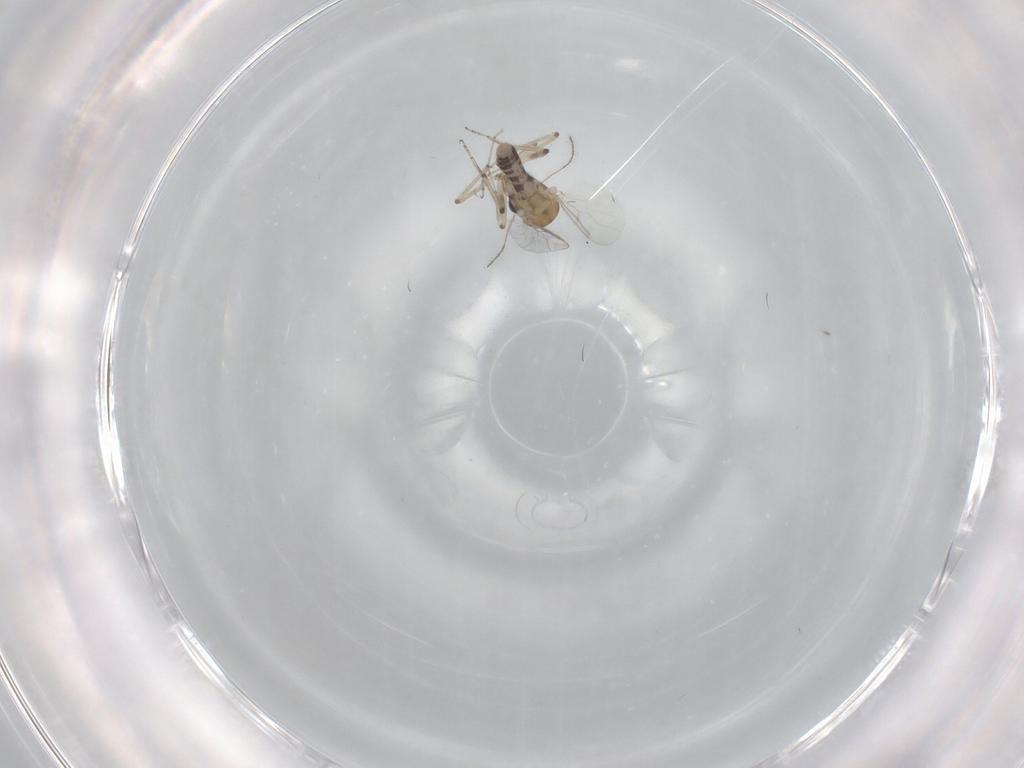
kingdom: Animalia
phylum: Arthropoda
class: Insecta
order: Diptera
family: Ceratopogonidae
